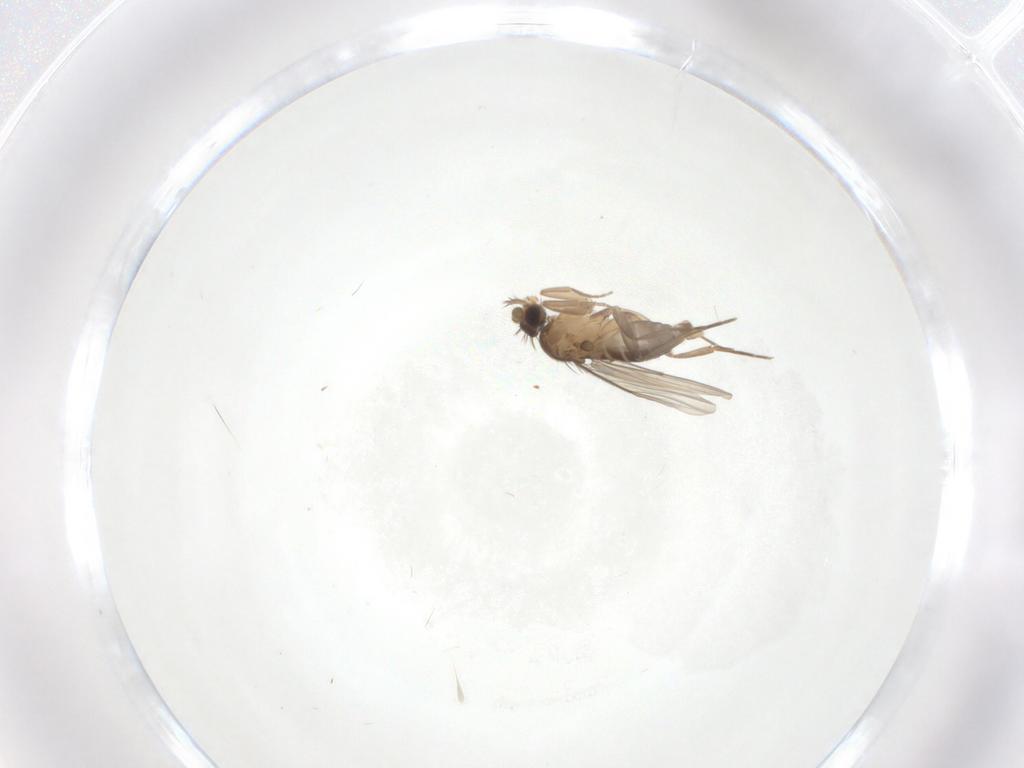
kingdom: Animalia
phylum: Arthropoda
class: Insecta
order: Diptera
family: Phoridae
